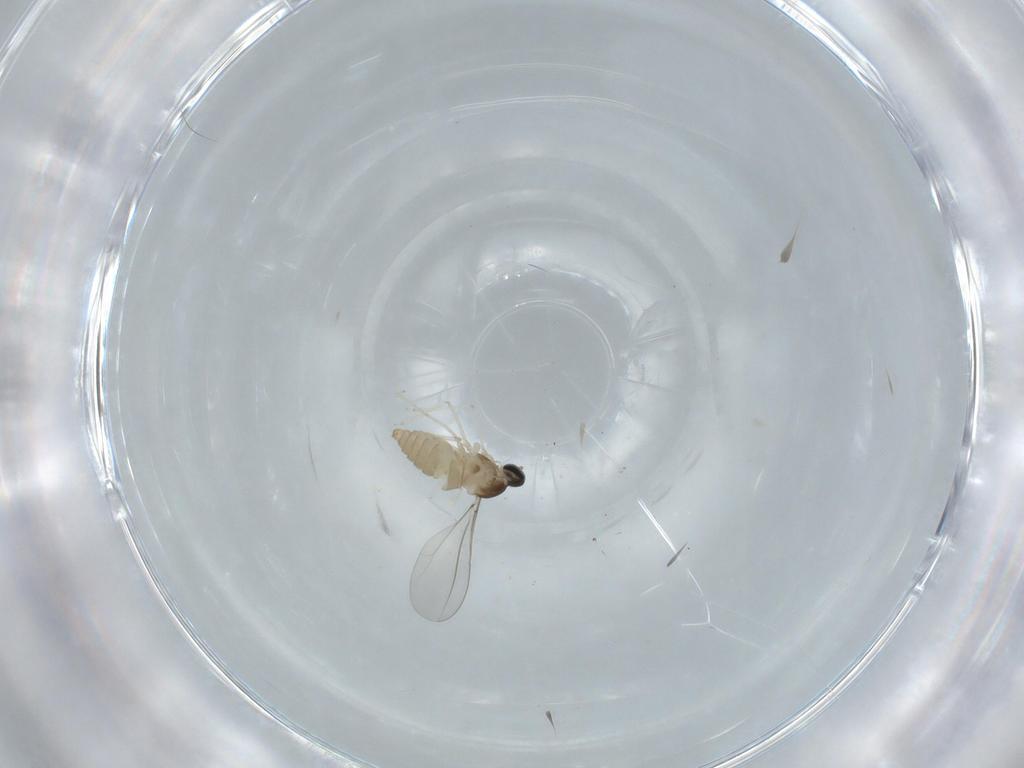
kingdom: Animalia
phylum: Arthropoda
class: Insecta
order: Diptera
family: Cecidomyiidae
